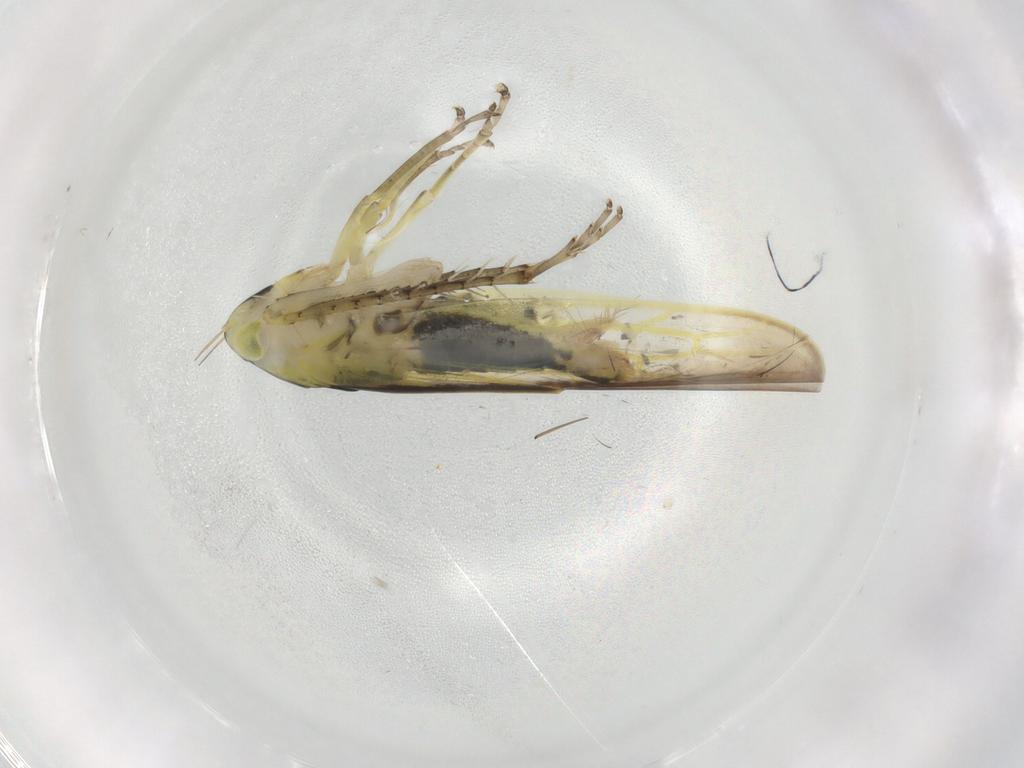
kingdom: Animalia
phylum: Arthropoda
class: Insecta
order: Hemiptera
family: Cicadellidae
